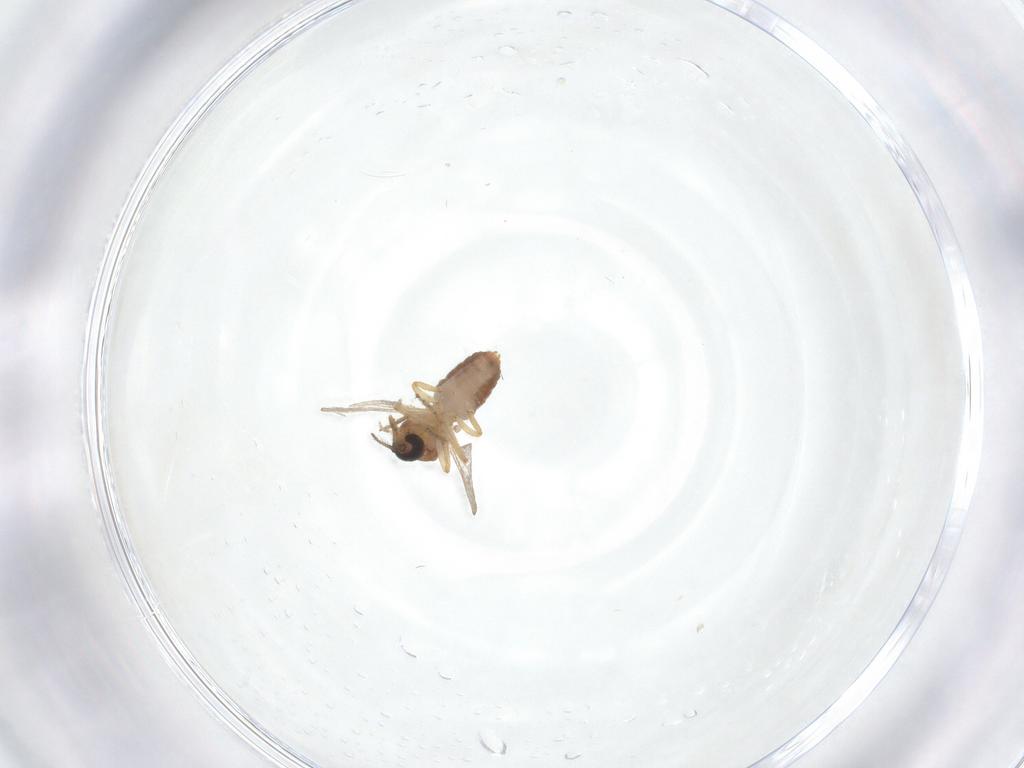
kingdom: Animalia
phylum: Arthropoda
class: Insecta
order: Diptera
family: Ceratopogonidae
